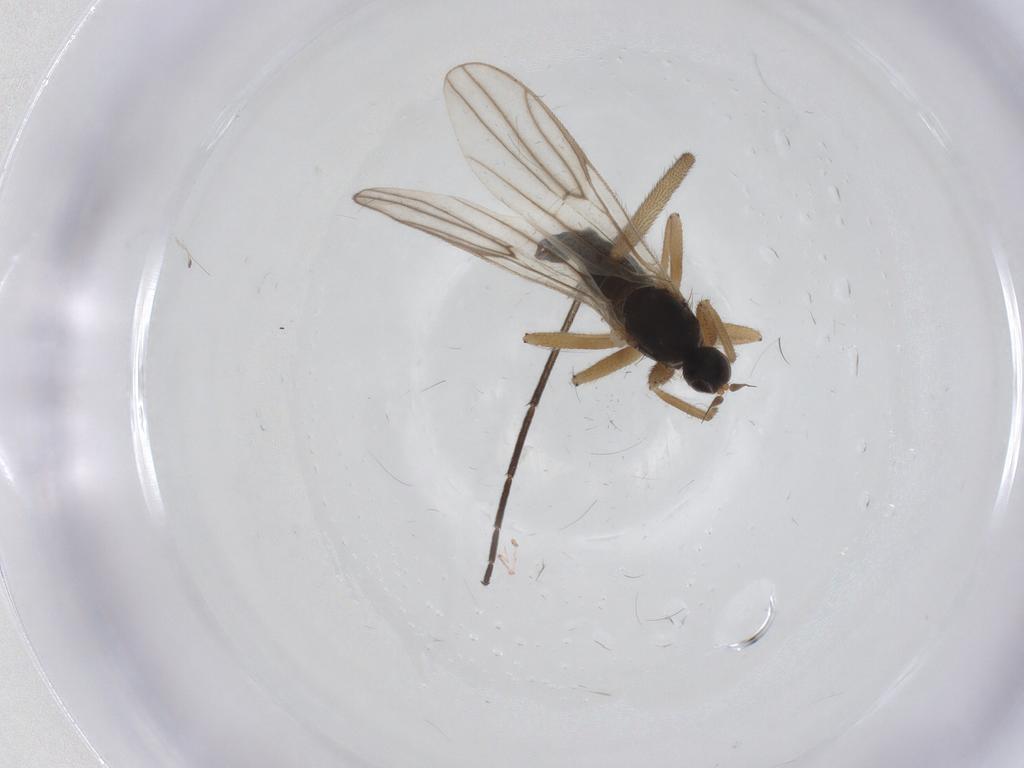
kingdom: Animalia
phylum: Arthropoda
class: Insecta
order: Diptera
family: Hybotidae
